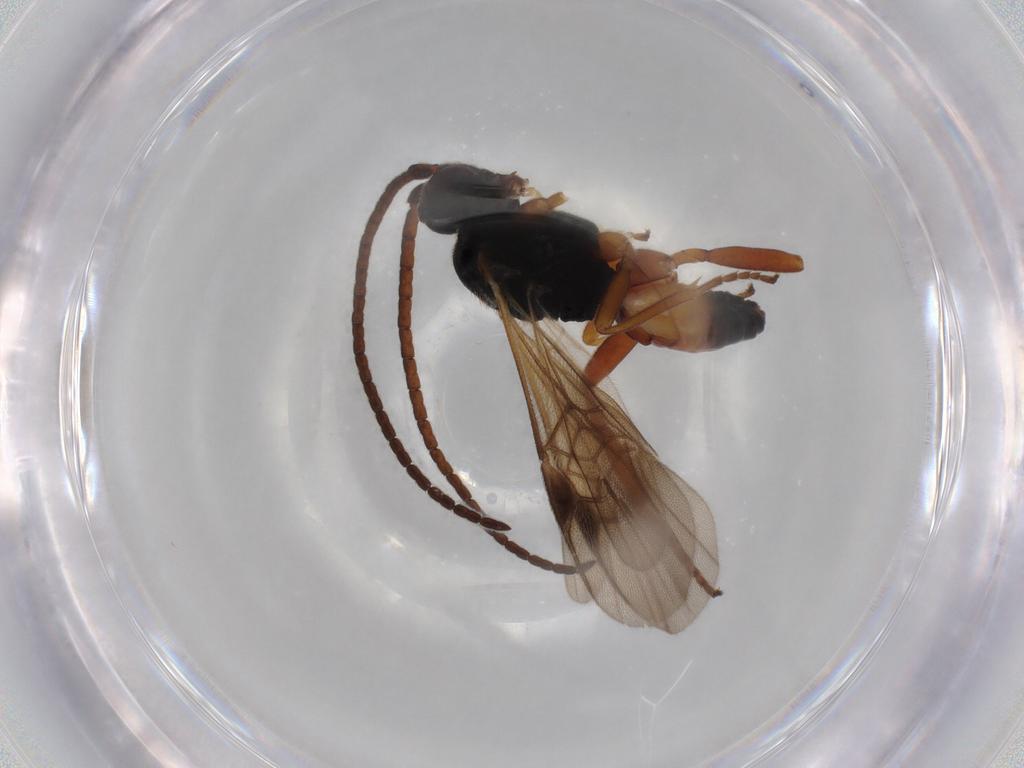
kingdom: Animalia
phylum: Arthropoda
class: Insecta
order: Hymenoptera
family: Braconidae
